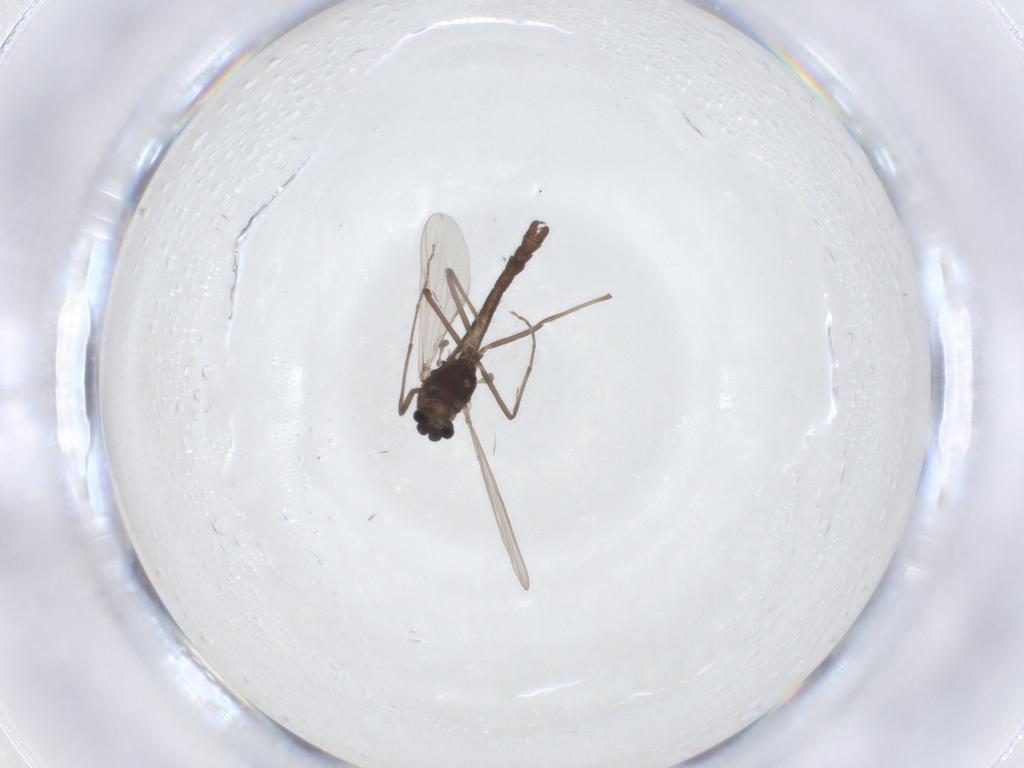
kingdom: Animalia
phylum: Arthropoda
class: Insecta
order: Diptera
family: Chironomidae
